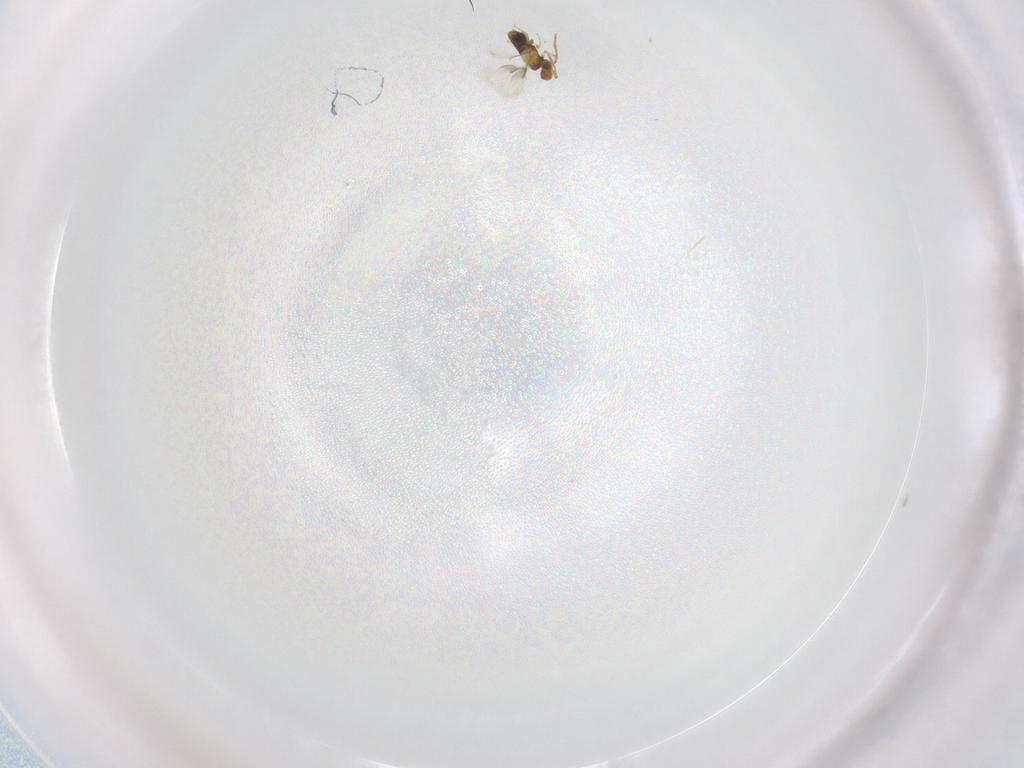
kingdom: Animalia
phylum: Arthropoda
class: Insecta
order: Hymenoptera
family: Aphelinidae
